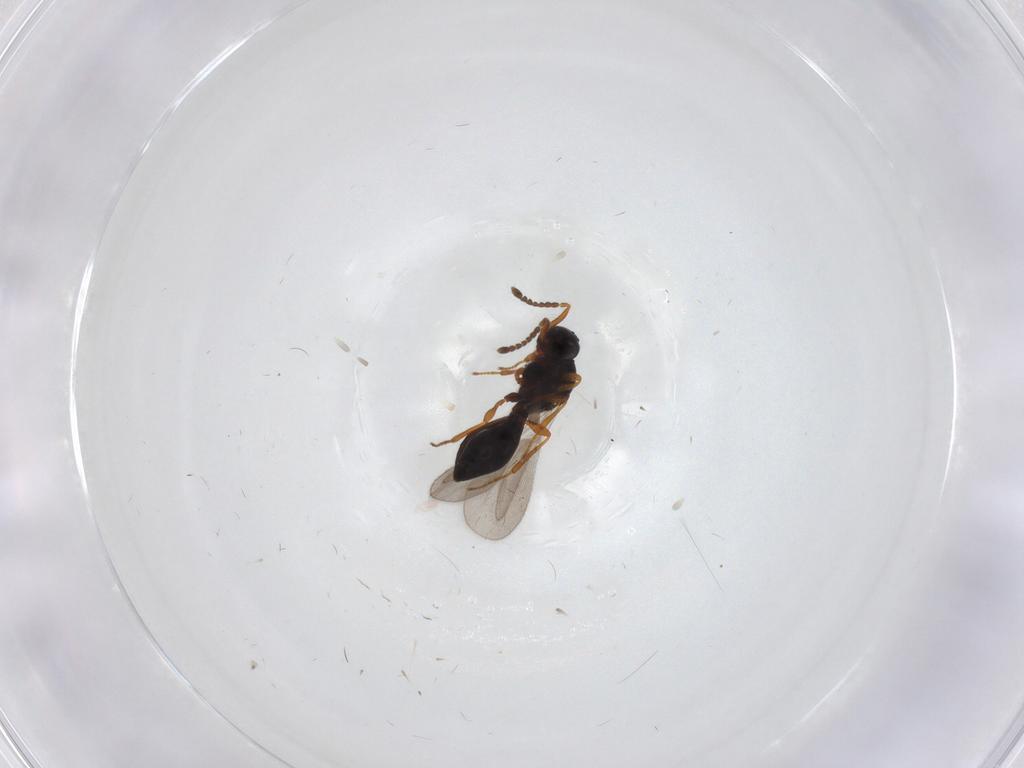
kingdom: Animalia
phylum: Arthropoda
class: Insecta
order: Hymenoptera
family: Platygastridae
